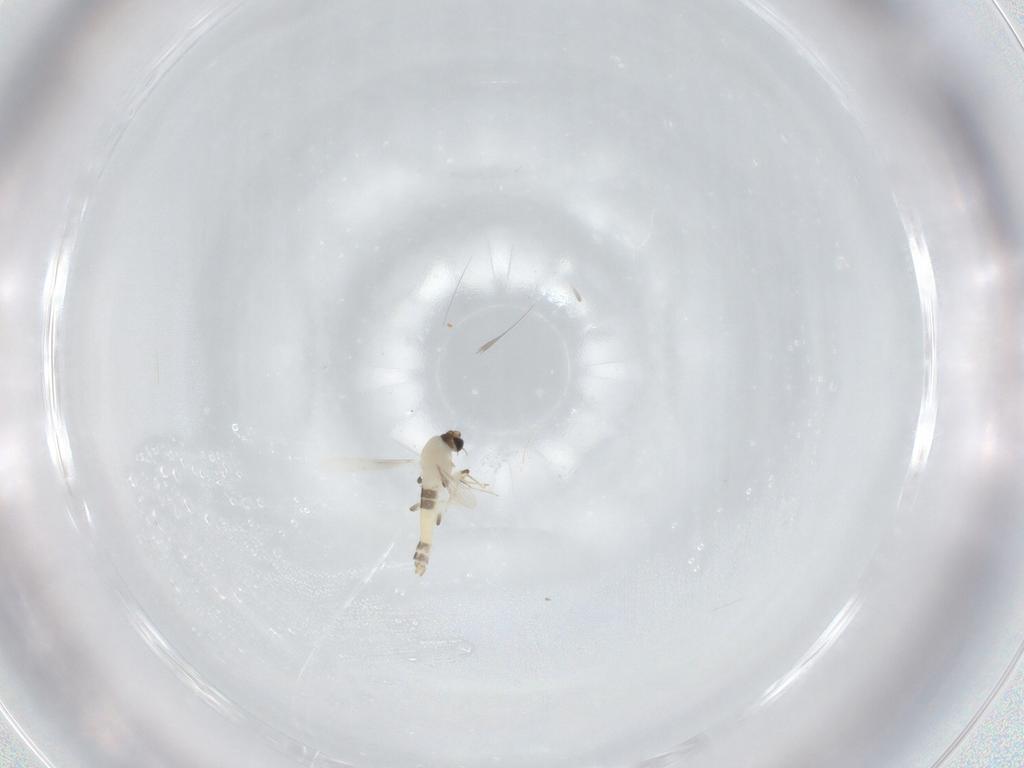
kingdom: Animalia
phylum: Arthropoda
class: Insecta
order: Diptera
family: Chironomidae
